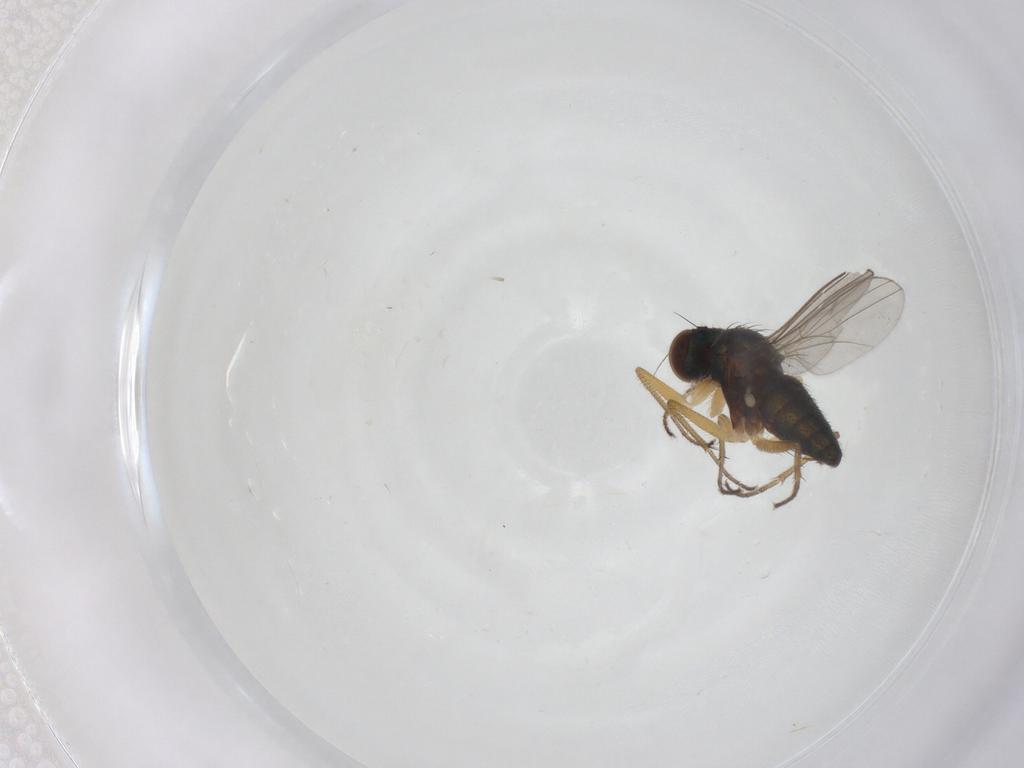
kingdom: Animalia
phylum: Arthropoda
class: Insecta
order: Diptera
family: Dolichopodidae
